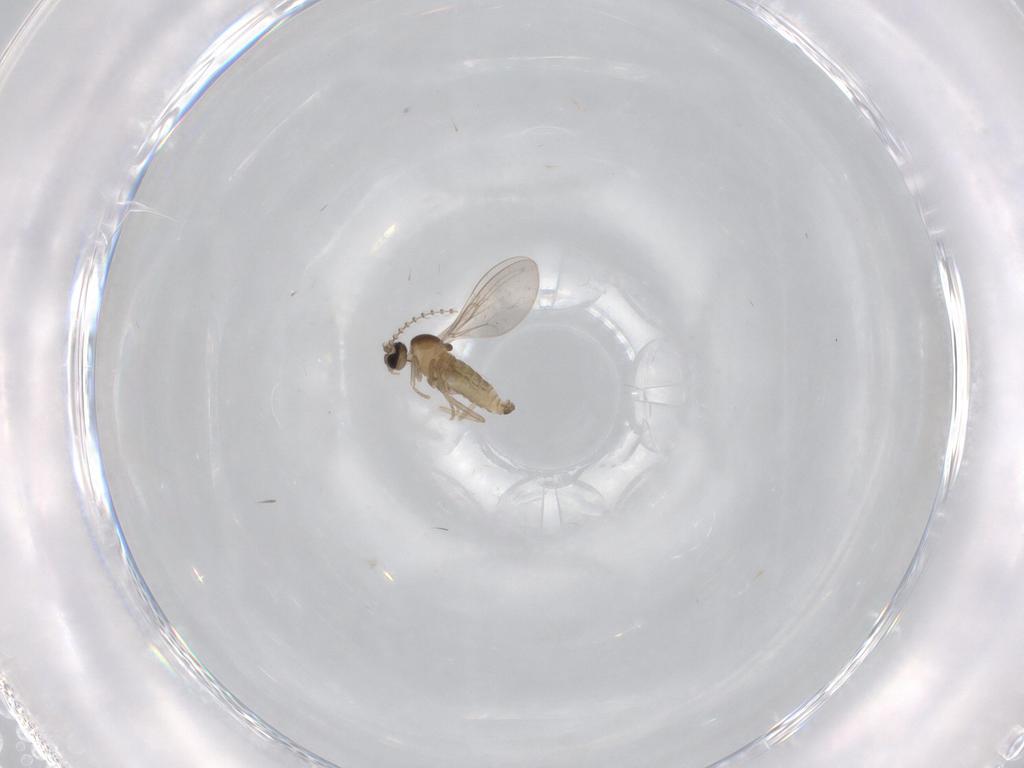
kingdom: Animalia
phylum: Arthropoda
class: Insecta
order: Diptera
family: Cecidomyiidae
